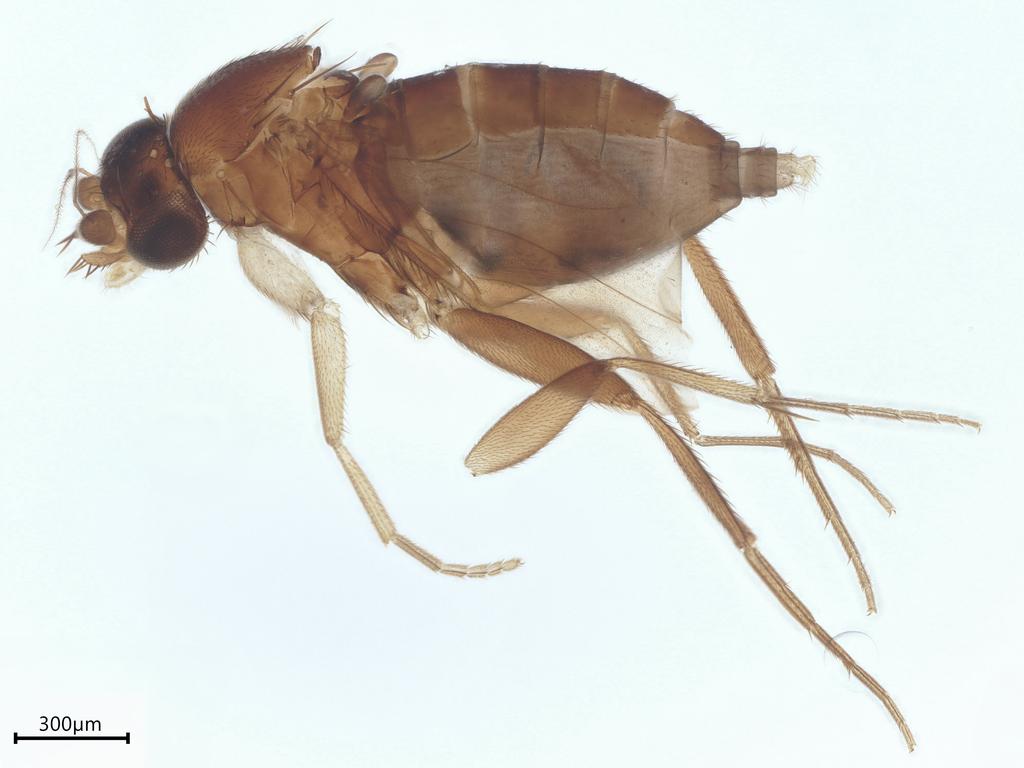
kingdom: Animalia
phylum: Arthropoda
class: Insecta
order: Diptera
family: Phoridae
